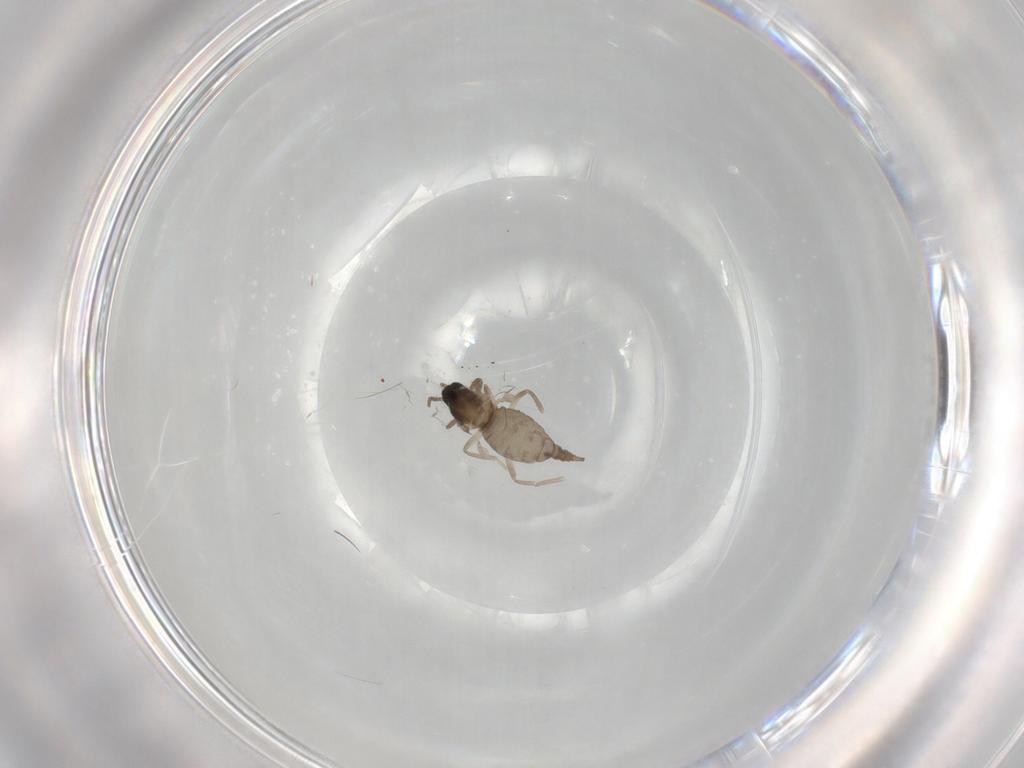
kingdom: Animalia
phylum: Arthropoda
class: Insecta
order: Diptera
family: Cecidomyiidae
